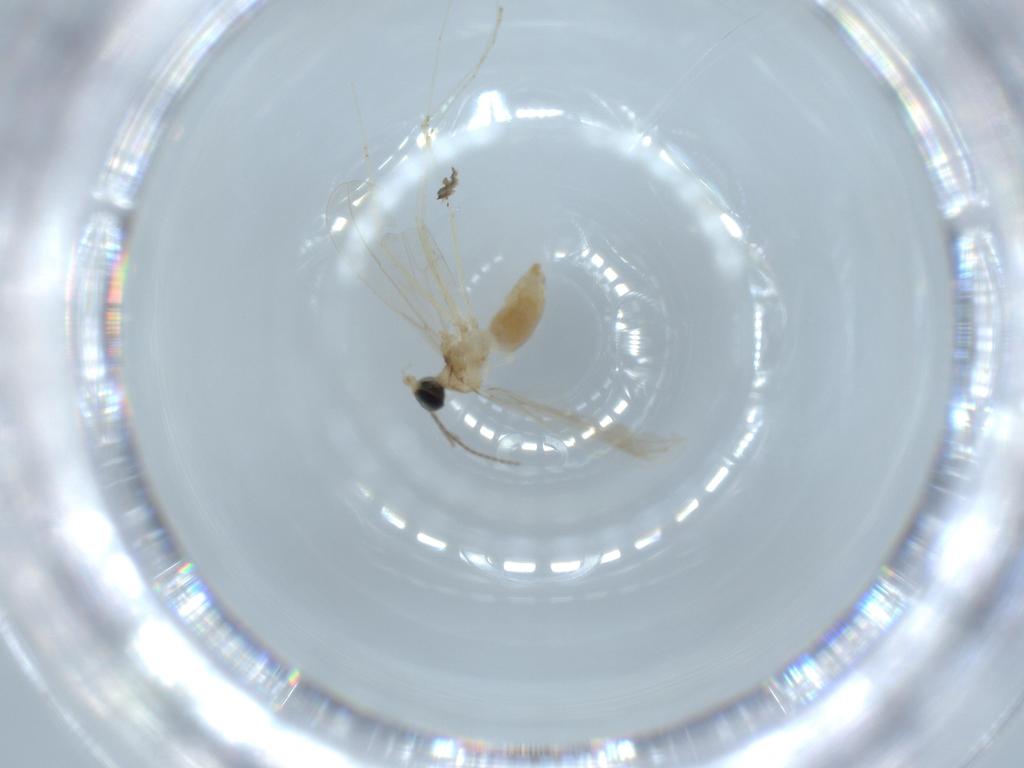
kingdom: Animalia
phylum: Arthropoda
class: Insecta
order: Diptera
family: Cecidomyiidae
